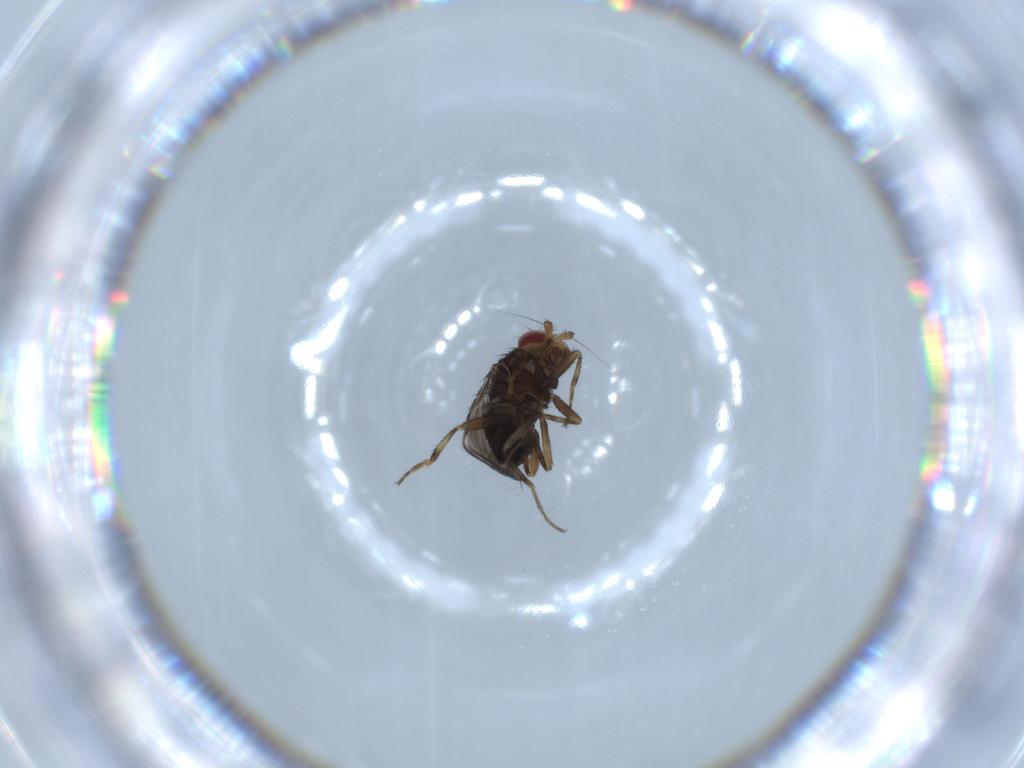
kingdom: Animalia
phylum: Arthropoda
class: Insecta
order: Diptera
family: Sphaeroceridae
